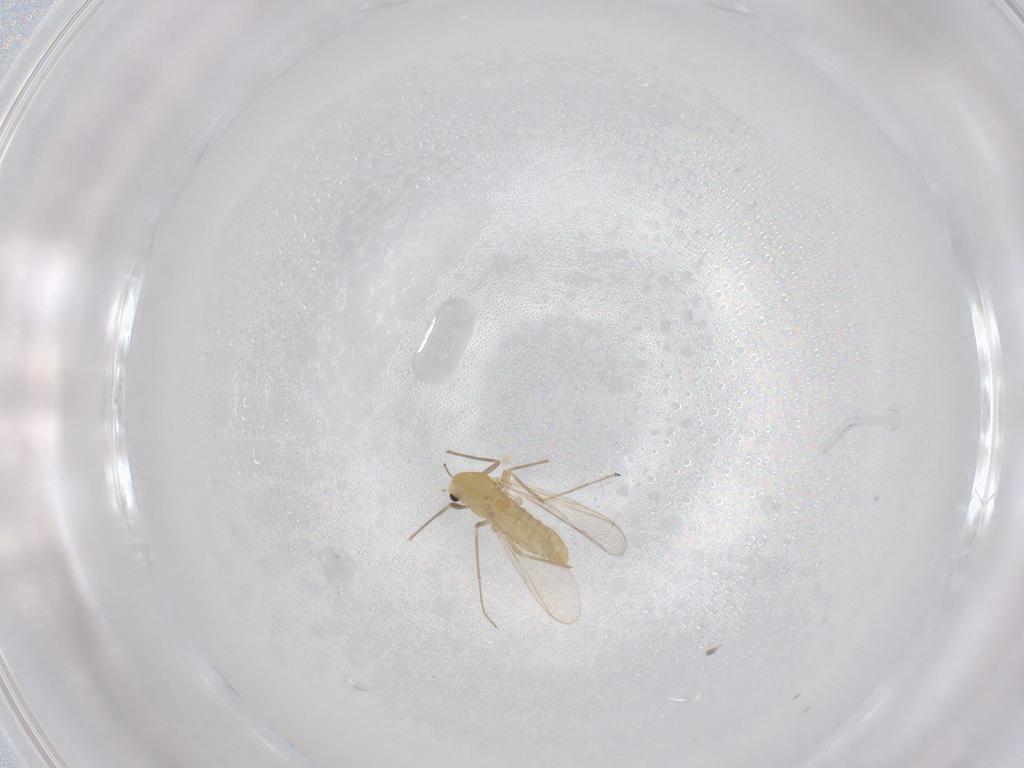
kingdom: Animalia
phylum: Arthropoda
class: Insecta
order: Diptera
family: Chironomidae
